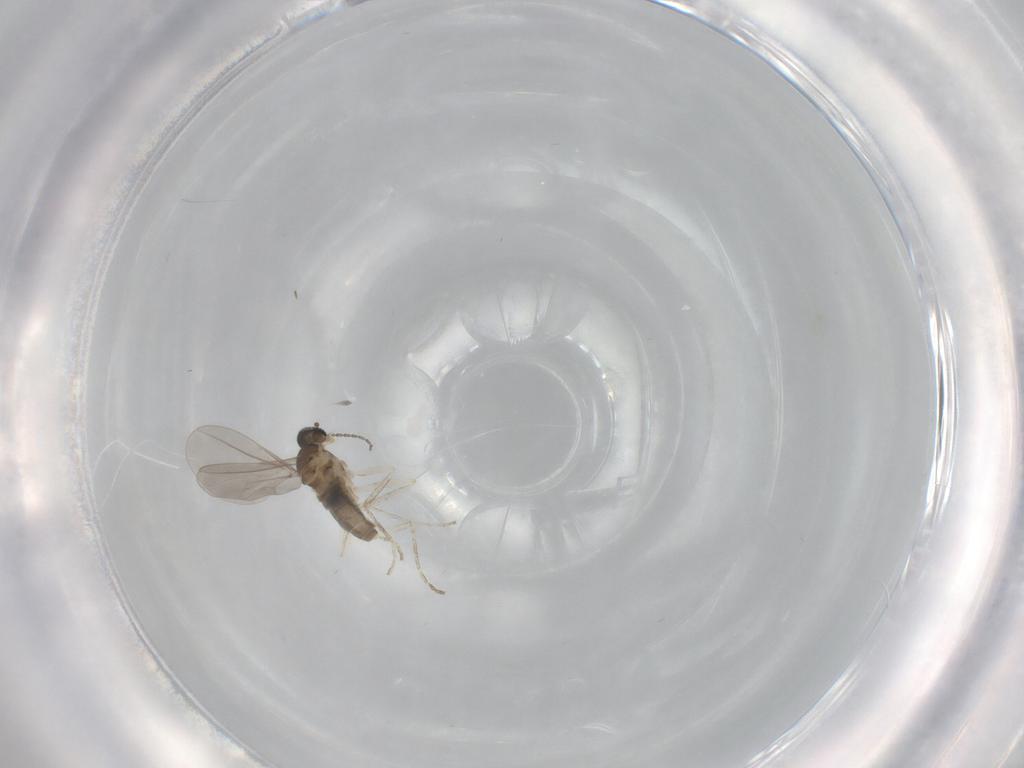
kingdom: Animalia
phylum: Arthropoda
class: Insecta
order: Diptera
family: Cecidomyiidae
